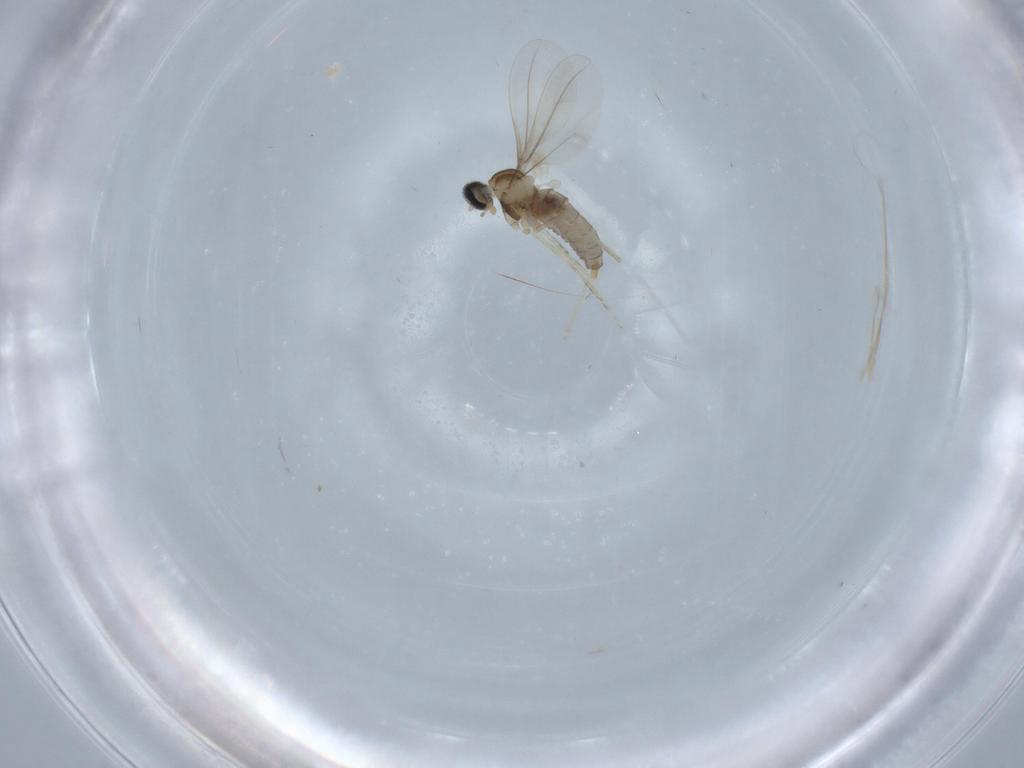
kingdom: Animalia
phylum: Arthropoda
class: Insecta
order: Diptera
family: Cecidomyiidae
